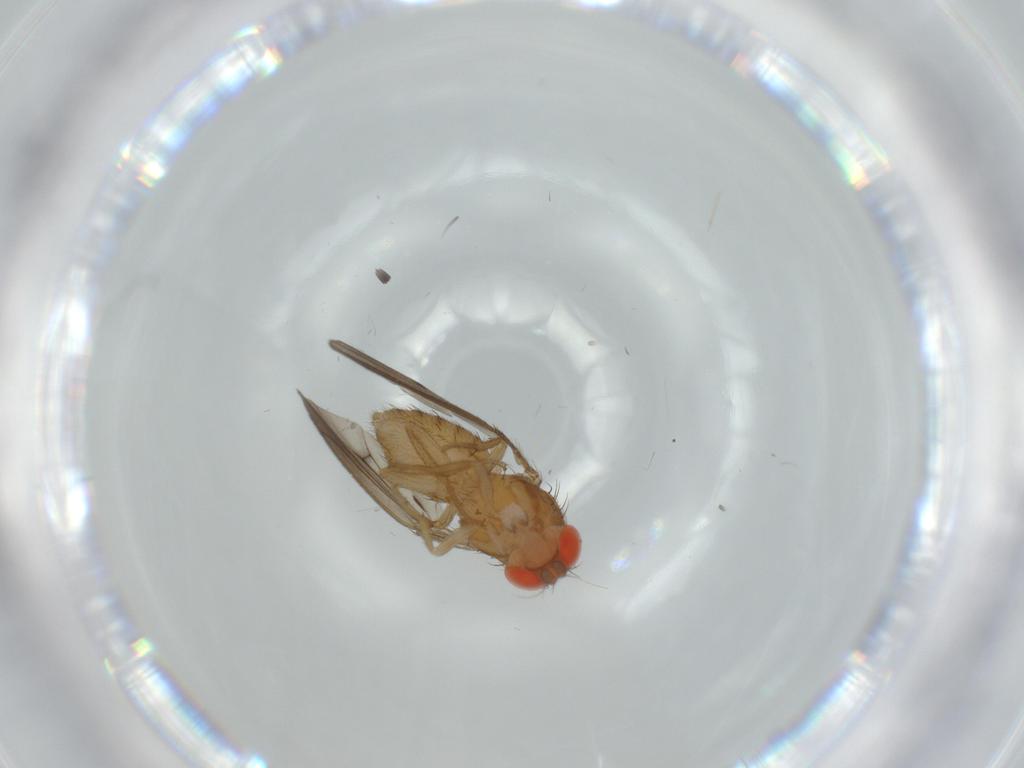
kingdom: Animalia
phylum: Arthropoda
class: Insecta
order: Diptera
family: Drosophilidae
